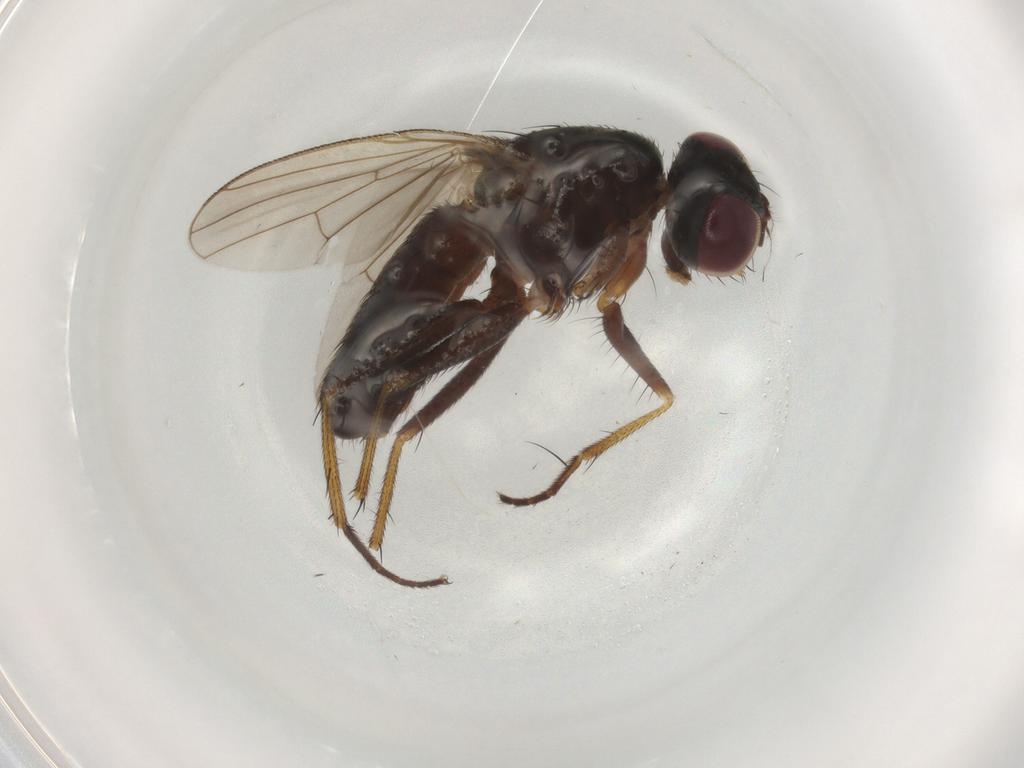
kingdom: Animalia
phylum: Arthropoda
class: Insecta
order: Diptera
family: Muscidae
